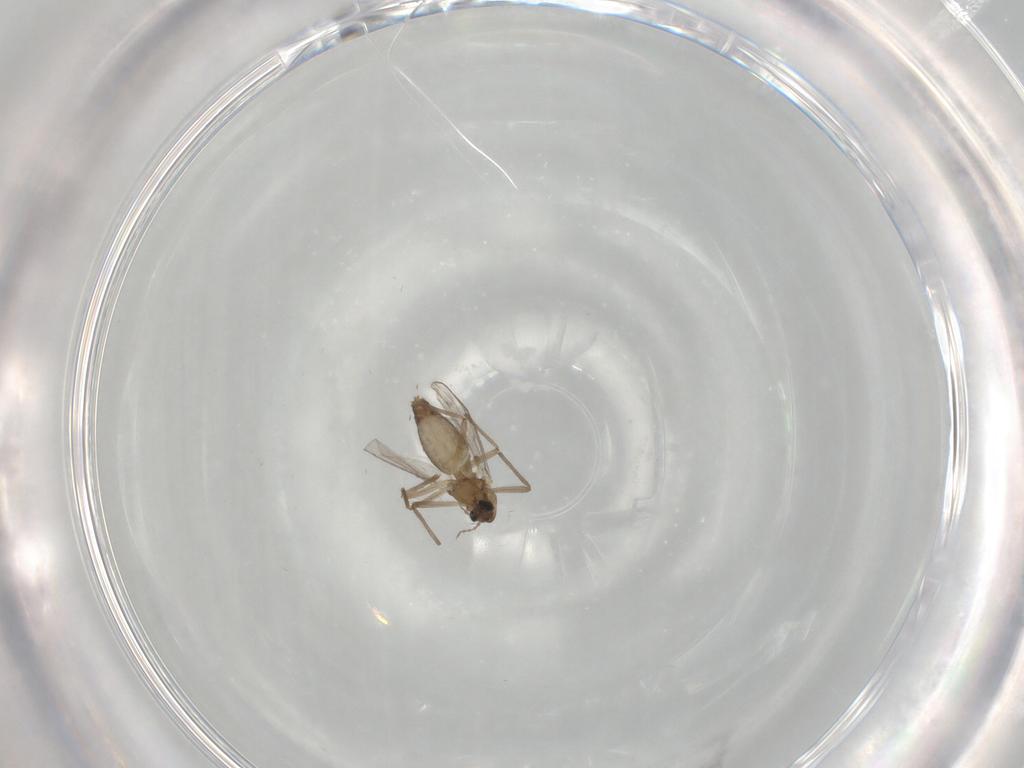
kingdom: Animalia
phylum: Arthropoda
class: Insecta
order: Diptera
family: Chironomidae
